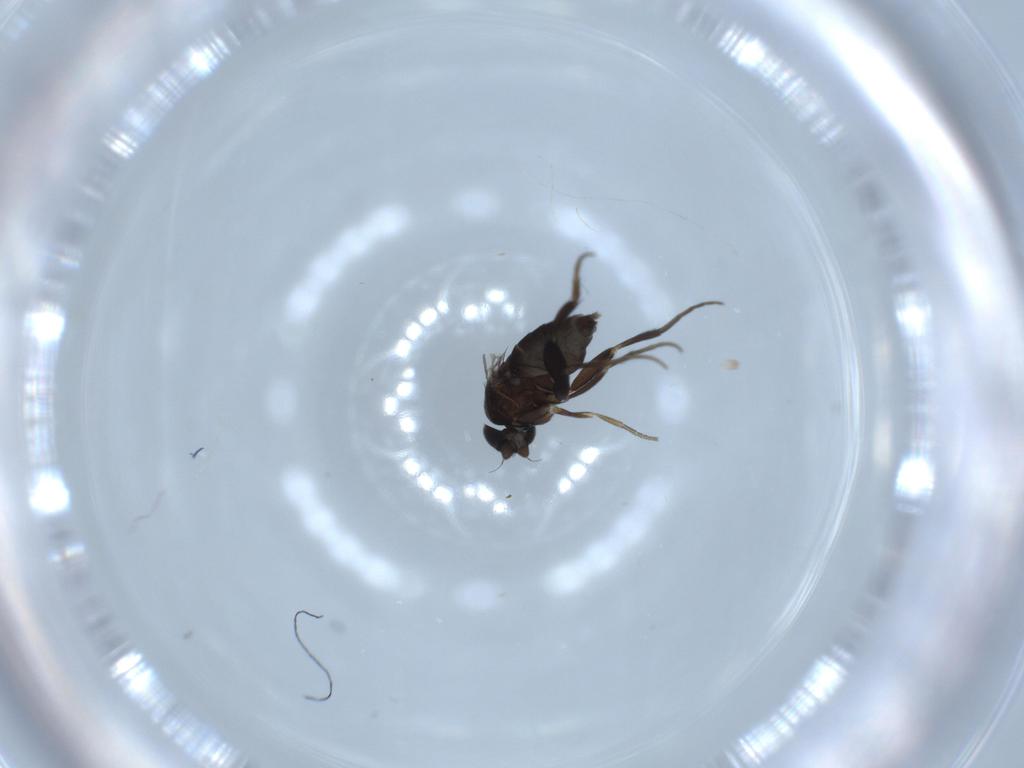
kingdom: Animalia
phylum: Arthropoda
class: Insecta
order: Diptera
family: Phoridae
